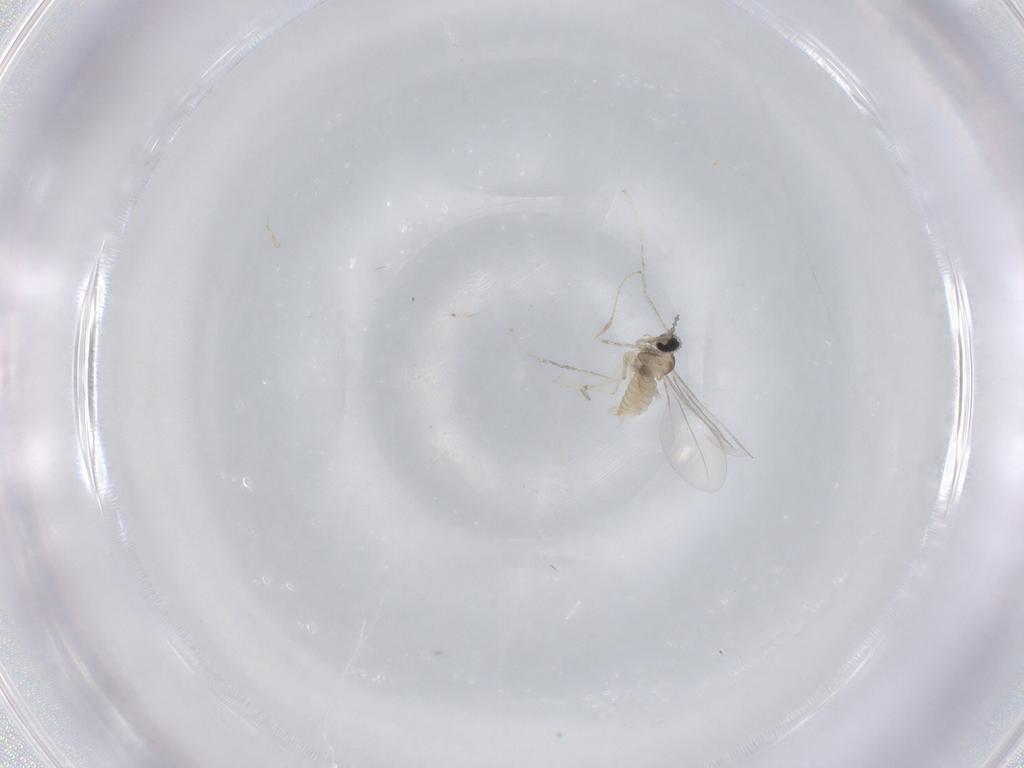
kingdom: Animalia
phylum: Arthropoda
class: Insecta
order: Diptera
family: Cecidomyiidae
